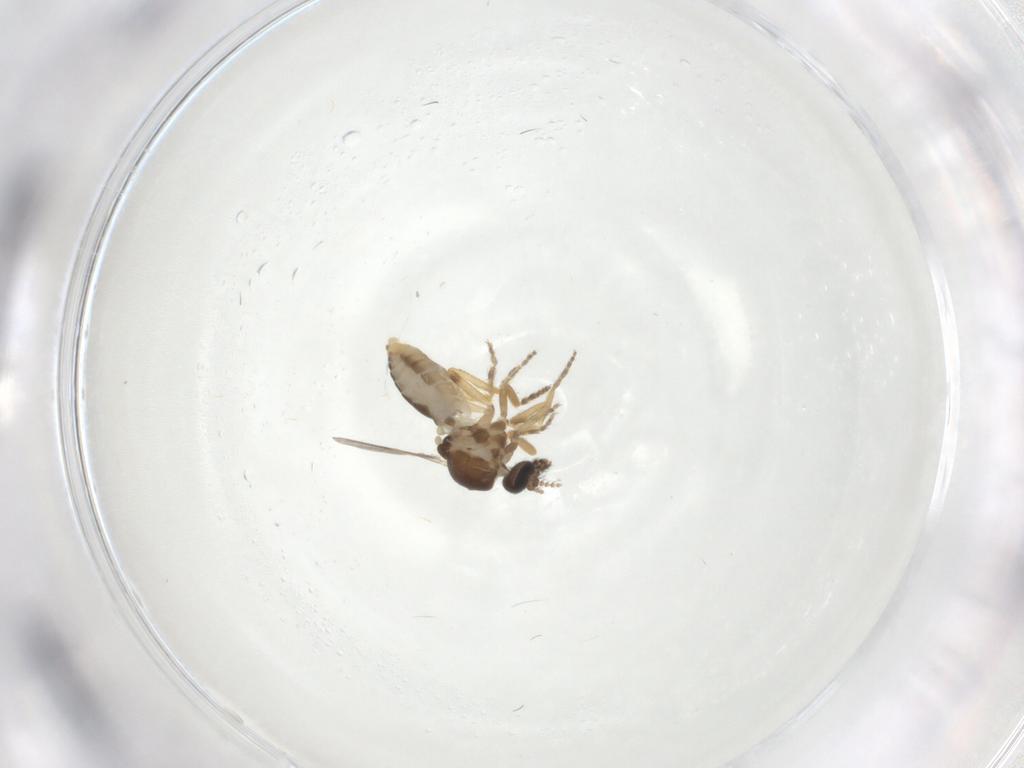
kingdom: Animalia
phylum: Arthropoda
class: Insecta
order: Diptera
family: Ceratopogonidae
